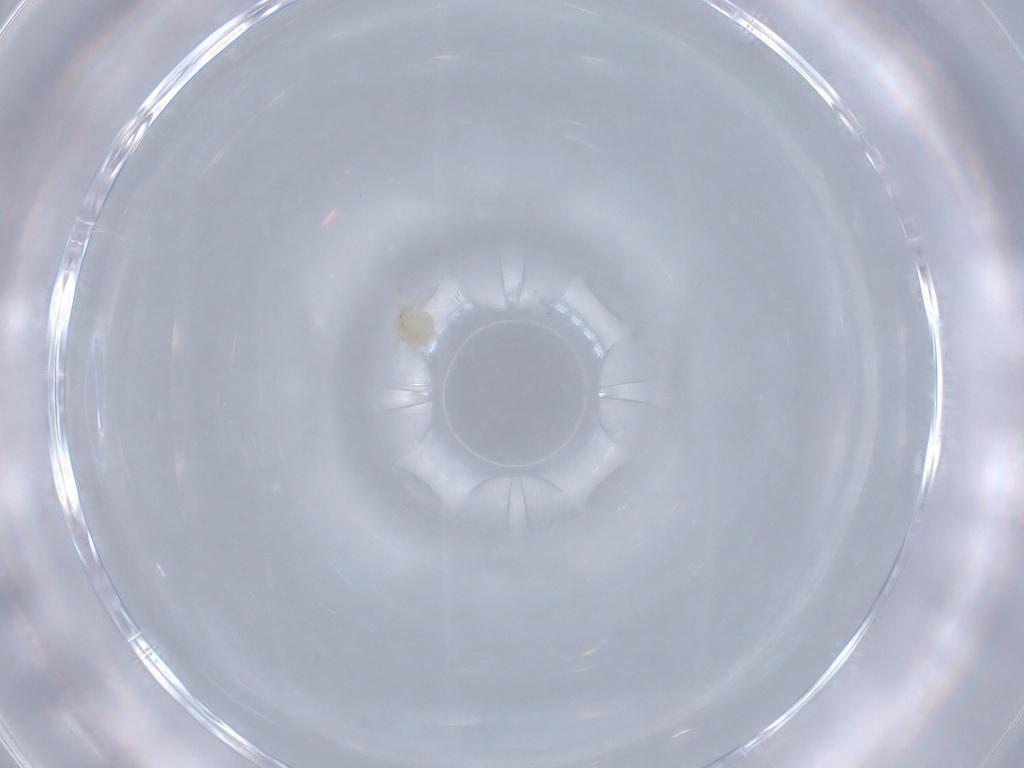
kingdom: Animalia
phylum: Arthropoda
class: Arachnida
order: Trombidiformes
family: Anystidae
